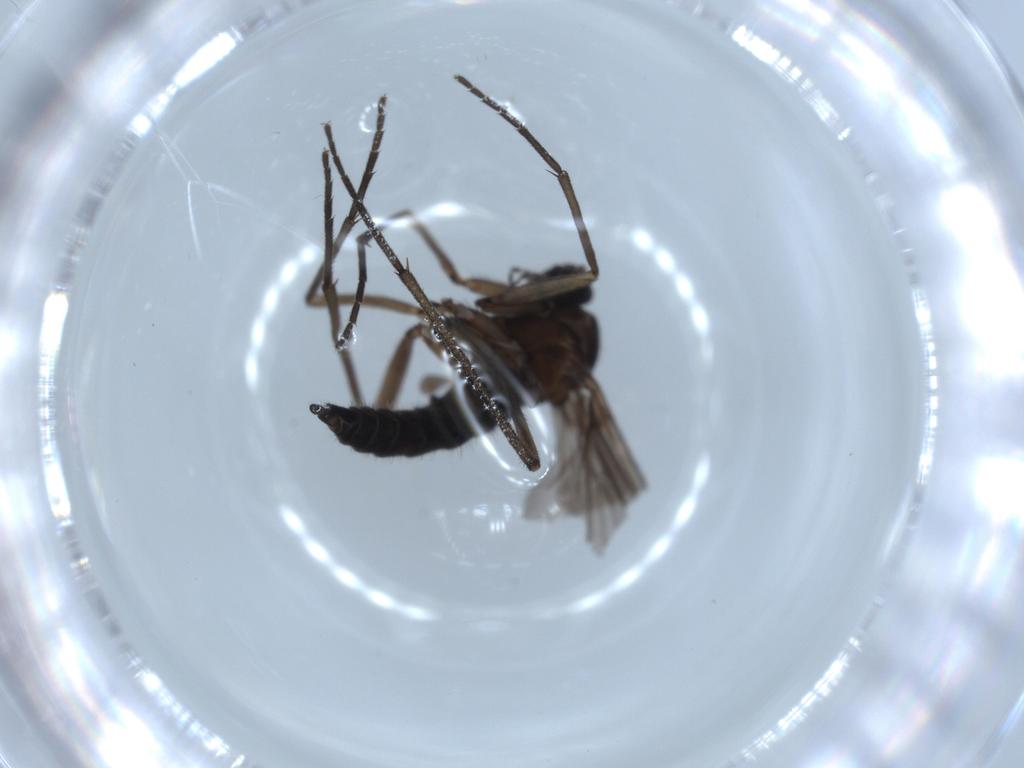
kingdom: Animalia
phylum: Arthropoda
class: Insecta
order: Diptera
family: Sciaridae
